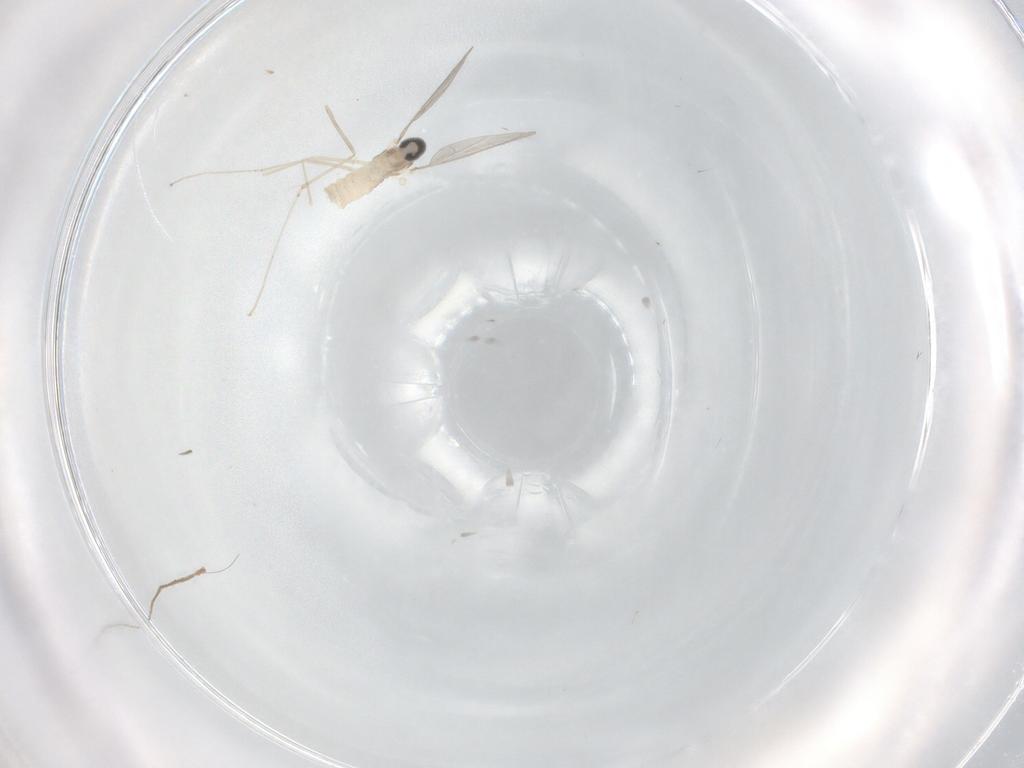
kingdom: Animalia
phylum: Arthropoda
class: Insecta
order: Diptera
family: Cecidomyiidae
